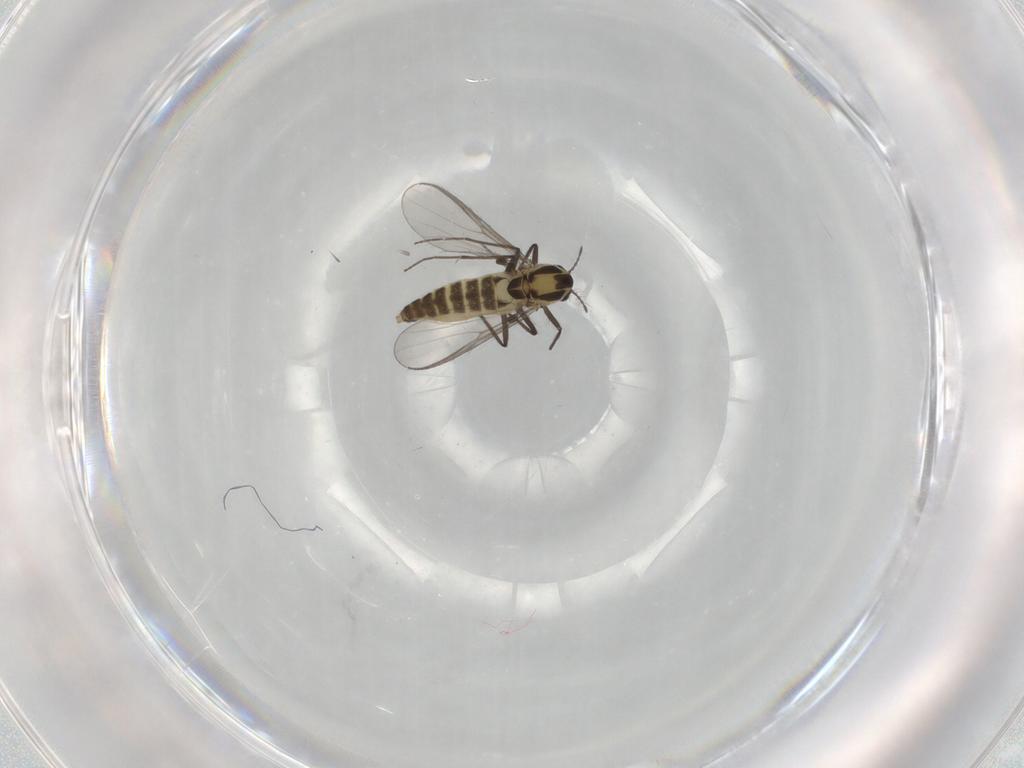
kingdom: Animalia
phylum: Arthropoda
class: Insecta
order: Diptera
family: Chironomidae
